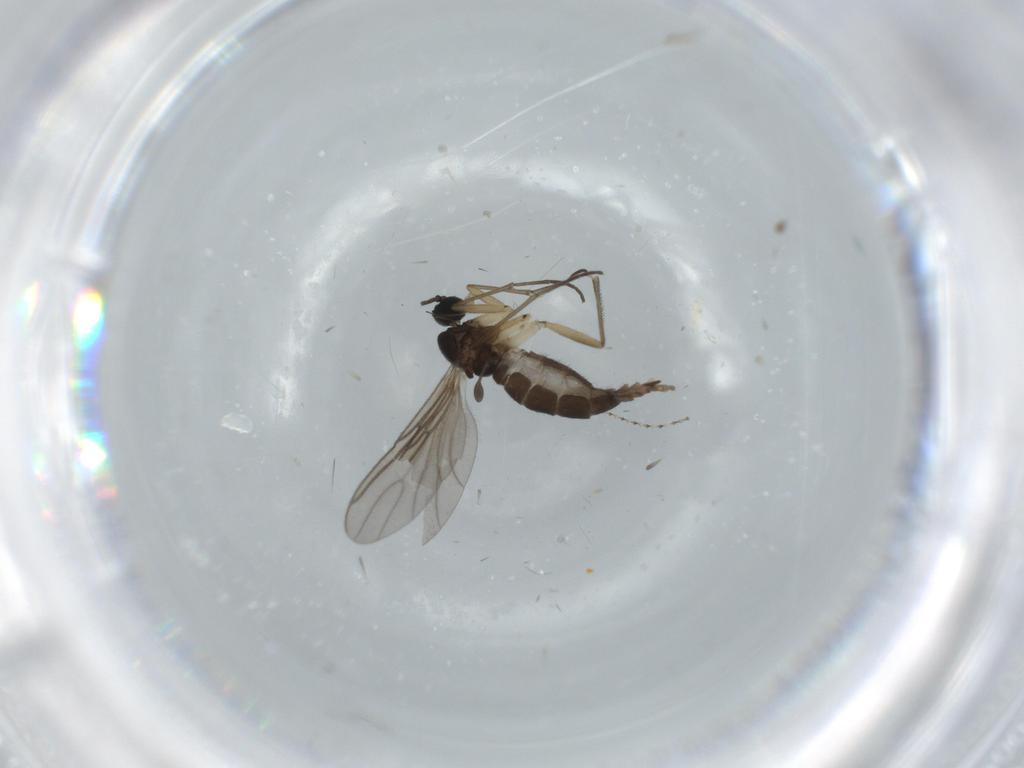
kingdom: Animalia
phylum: Arthropoda
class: Insecta
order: Diptera
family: Sciaridae
